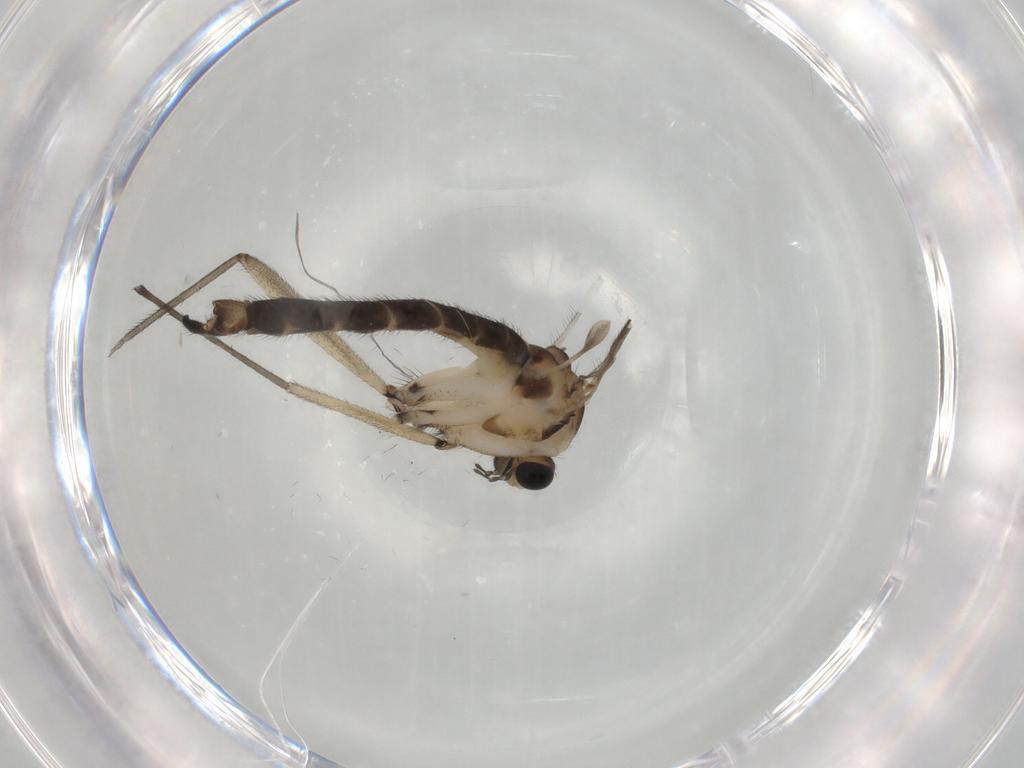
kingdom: Animalia
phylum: Arthropoda
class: Insecta
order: Diptera
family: Sciaridae
